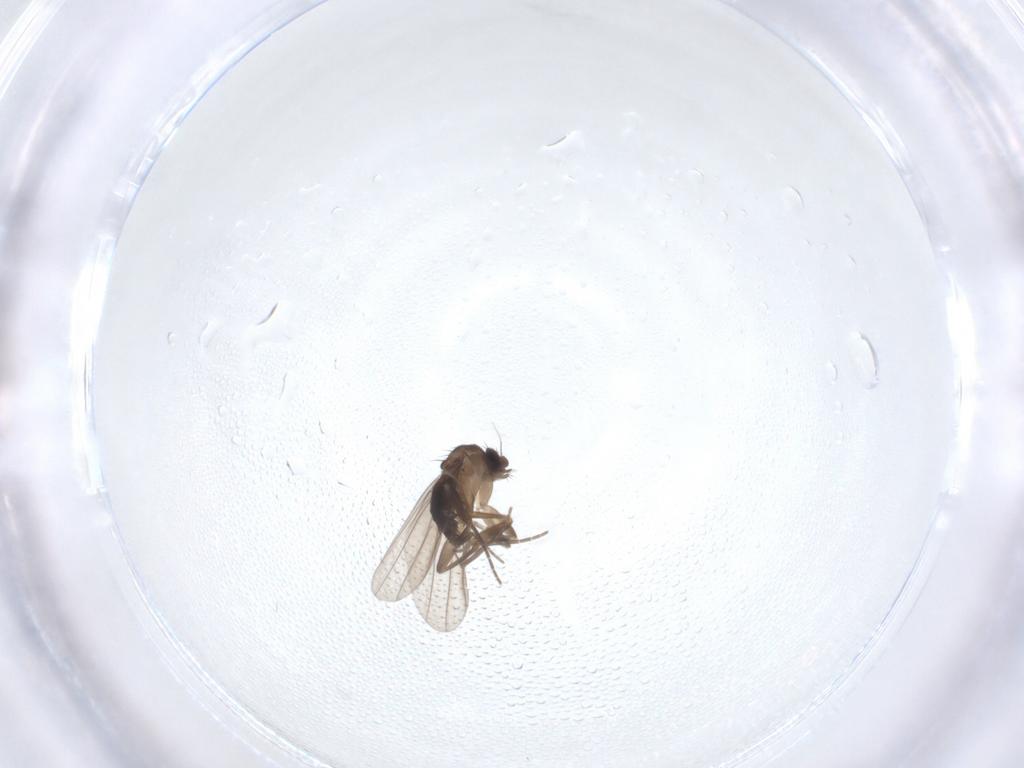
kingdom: Animalia
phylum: Arthropoda
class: Insecta
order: Diptera
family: Phoridae
